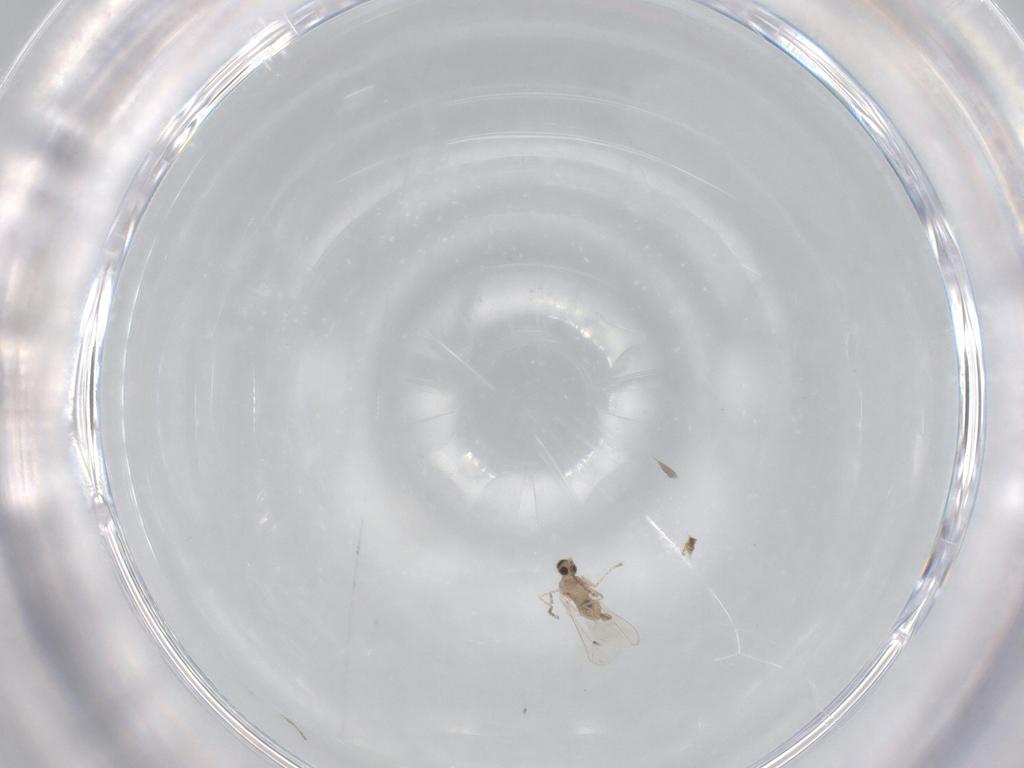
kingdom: Animalia
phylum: Arthropoda
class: Insecta
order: Diptera
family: Cecidomyiidae
